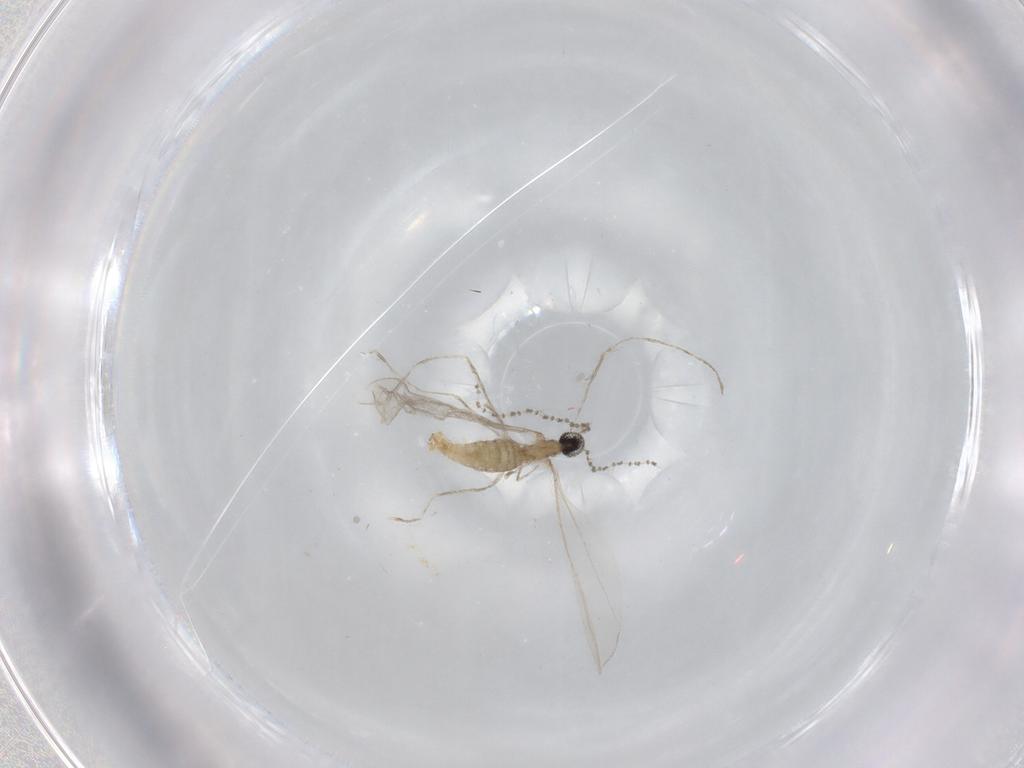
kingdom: Animalia
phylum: Arthropoda
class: Insecta
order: Diptera
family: Cecidomyiidae
